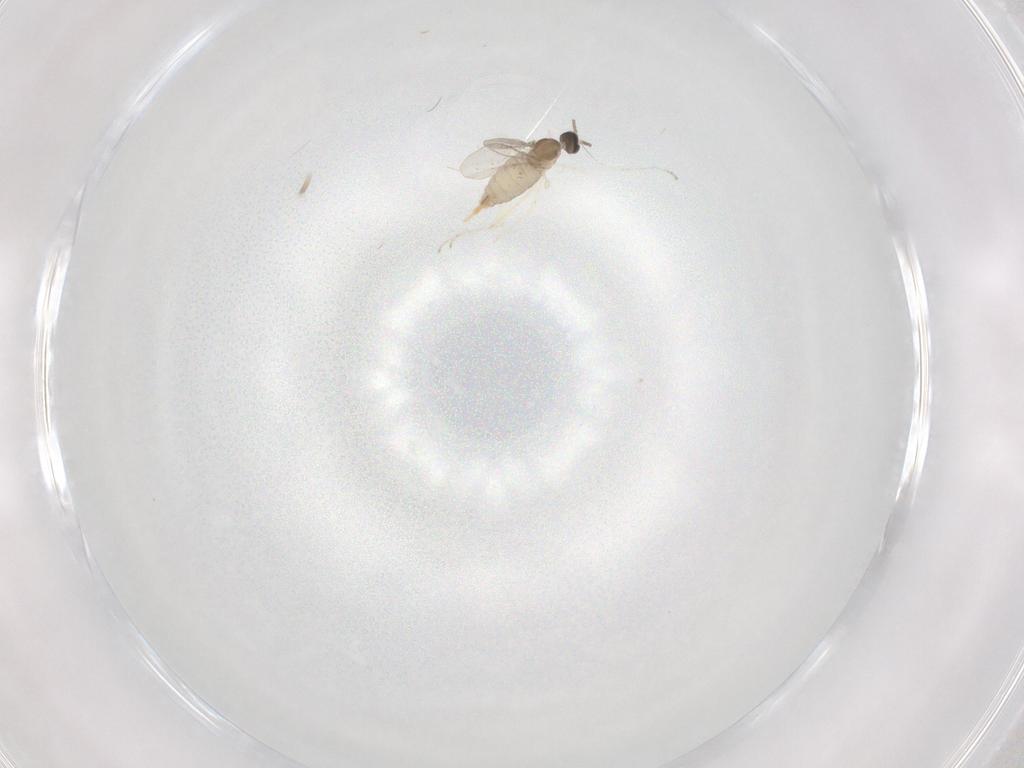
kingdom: Animalia
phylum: Arthropoda
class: Insecta
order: Diptera
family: Cecidomyiidae
